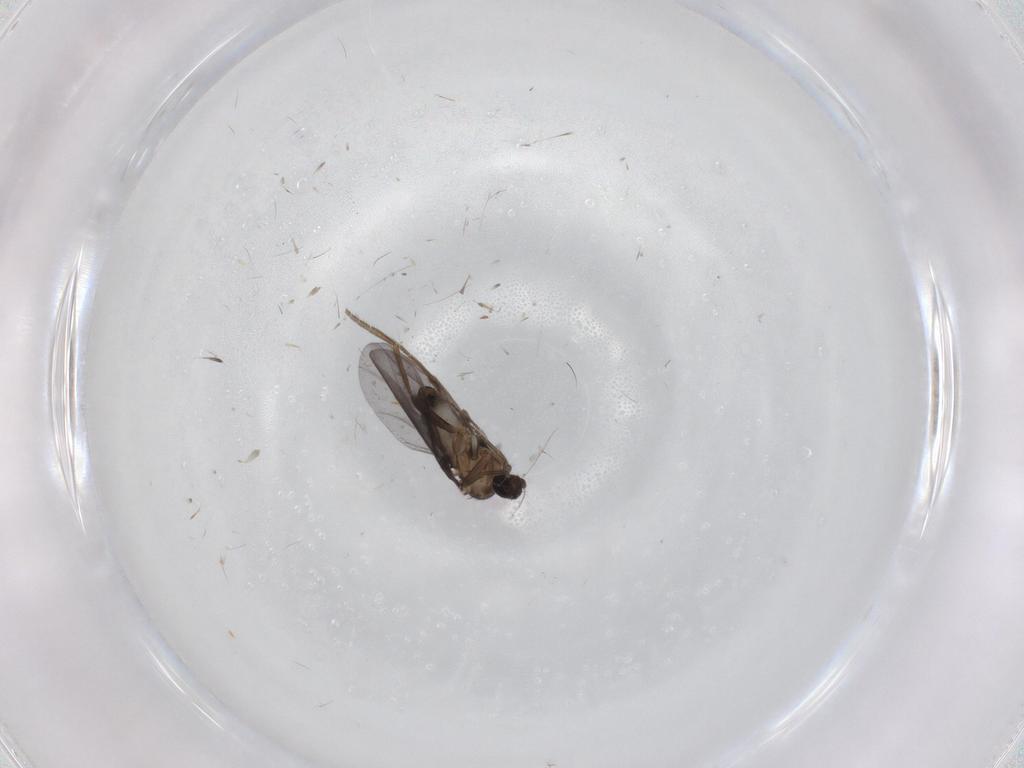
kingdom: Animalia
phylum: Arthropoda
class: Insecta
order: Diptera
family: Phoridae
